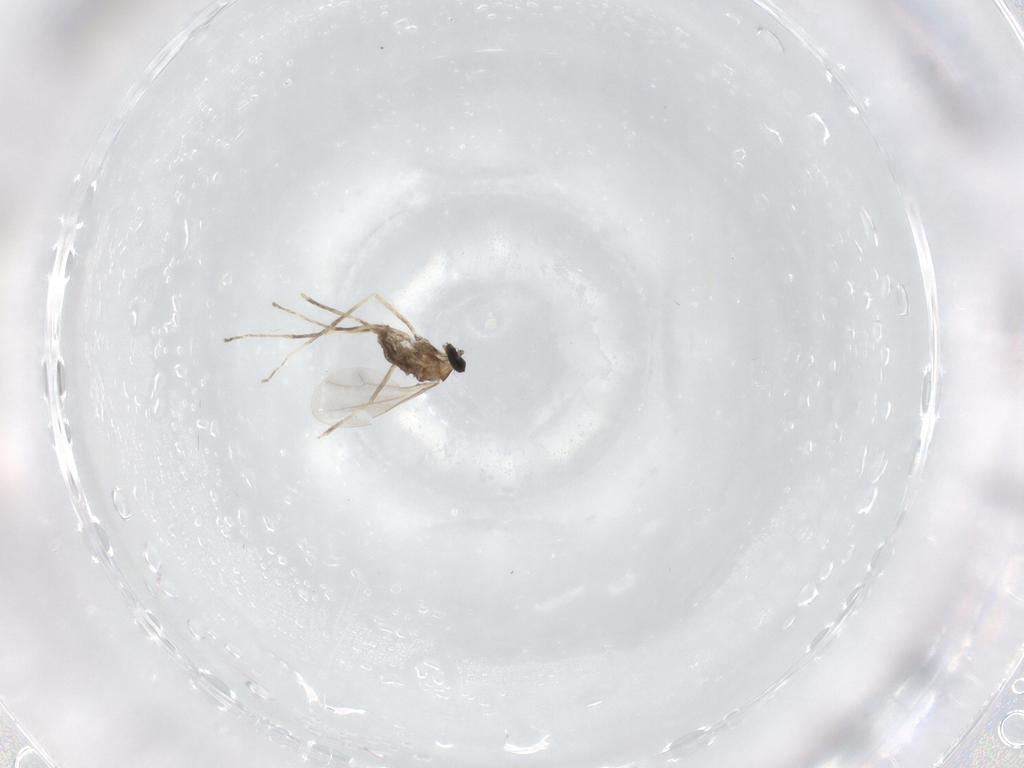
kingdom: Animalia
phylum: Arthropoda
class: Insecta
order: Diptera
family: Cecidomyiidae
